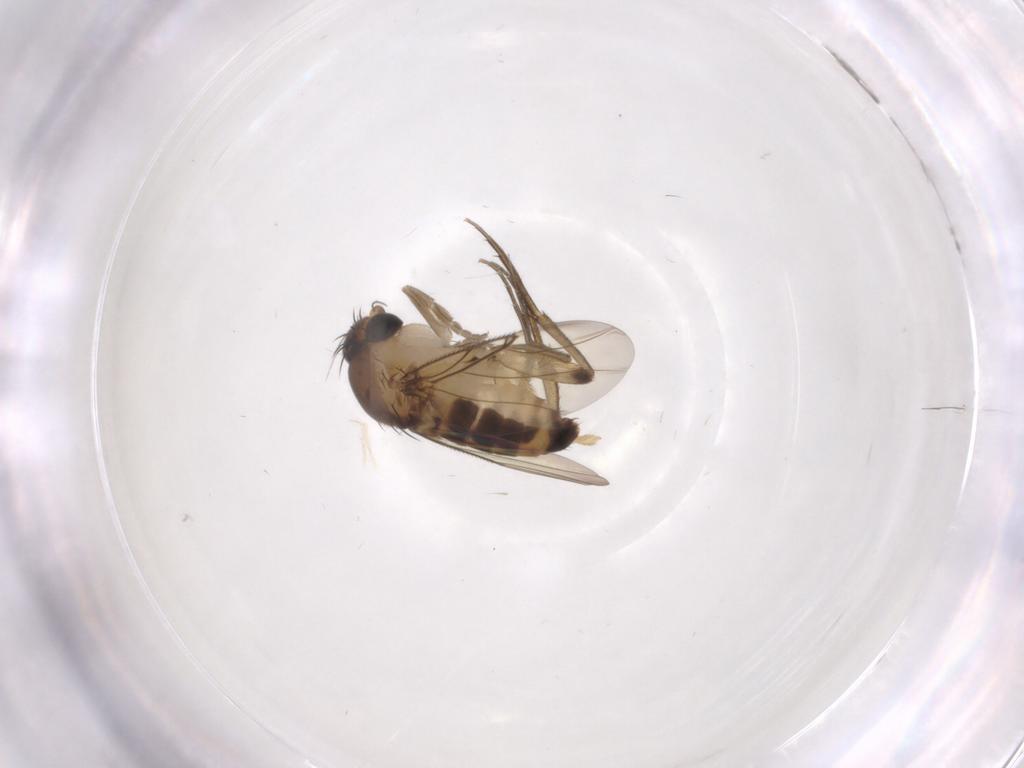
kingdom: Animalia
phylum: Arthropoda
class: Insecta
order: Diptera
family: Phoridae
